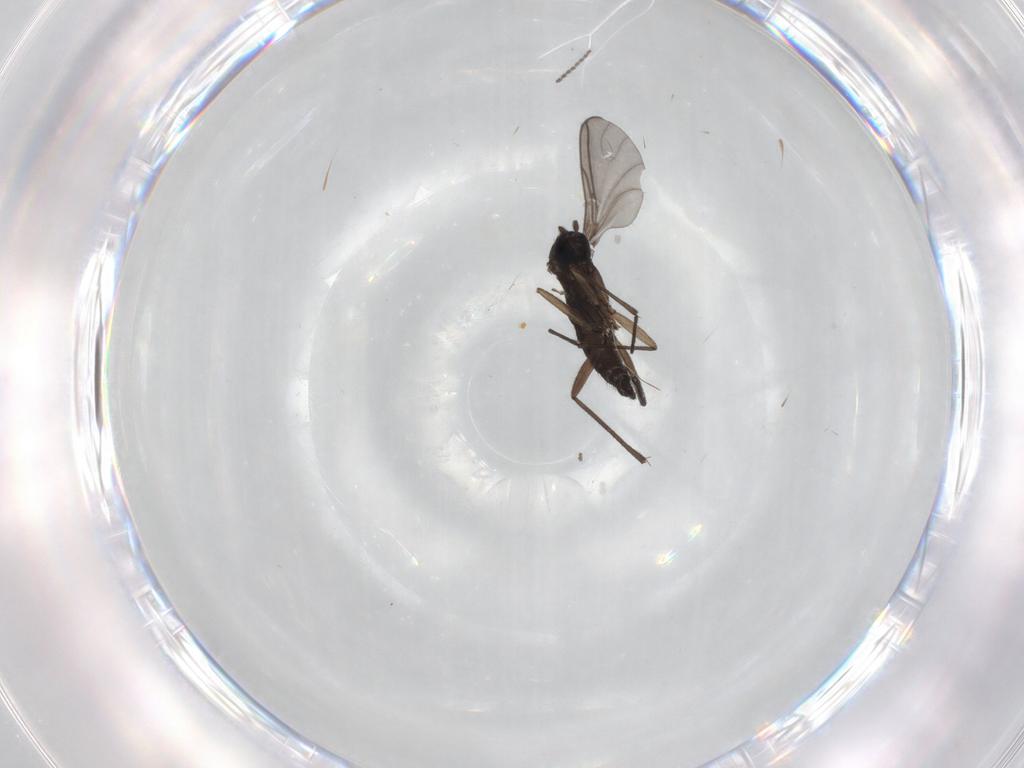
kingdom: Animalia
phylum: Arthropoda
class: Insecta
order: Diptera
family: Sciaridae
